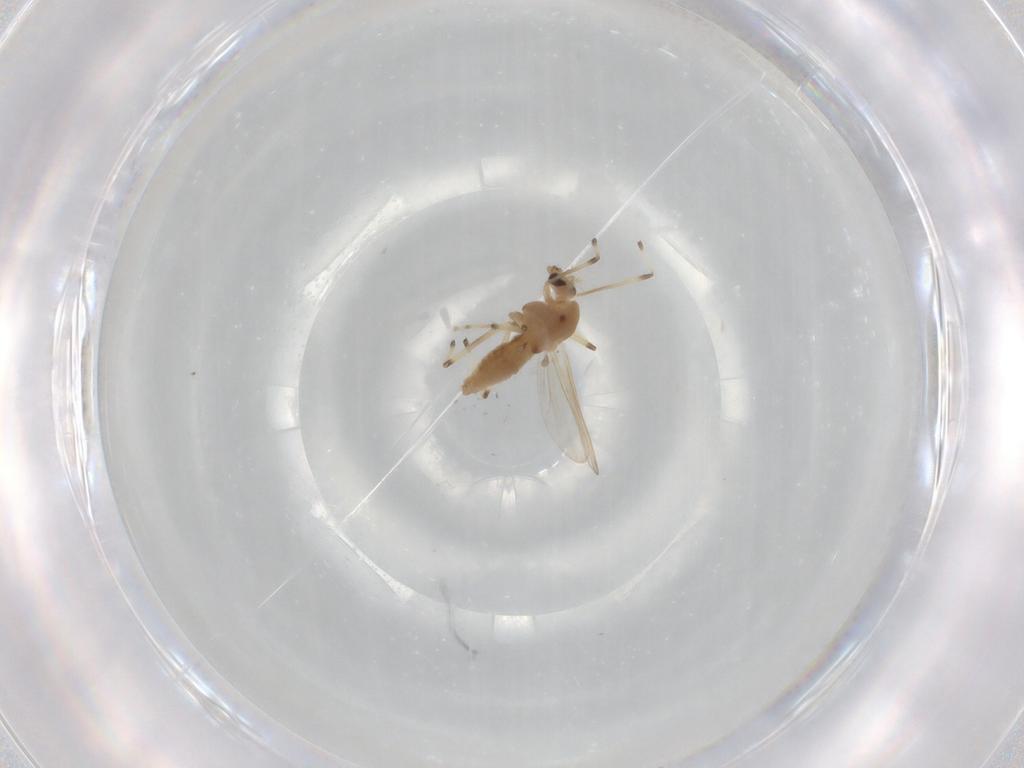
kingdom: Animalia
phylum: Arthropoda
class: Insecta
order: Diptera
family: Chironomidae
